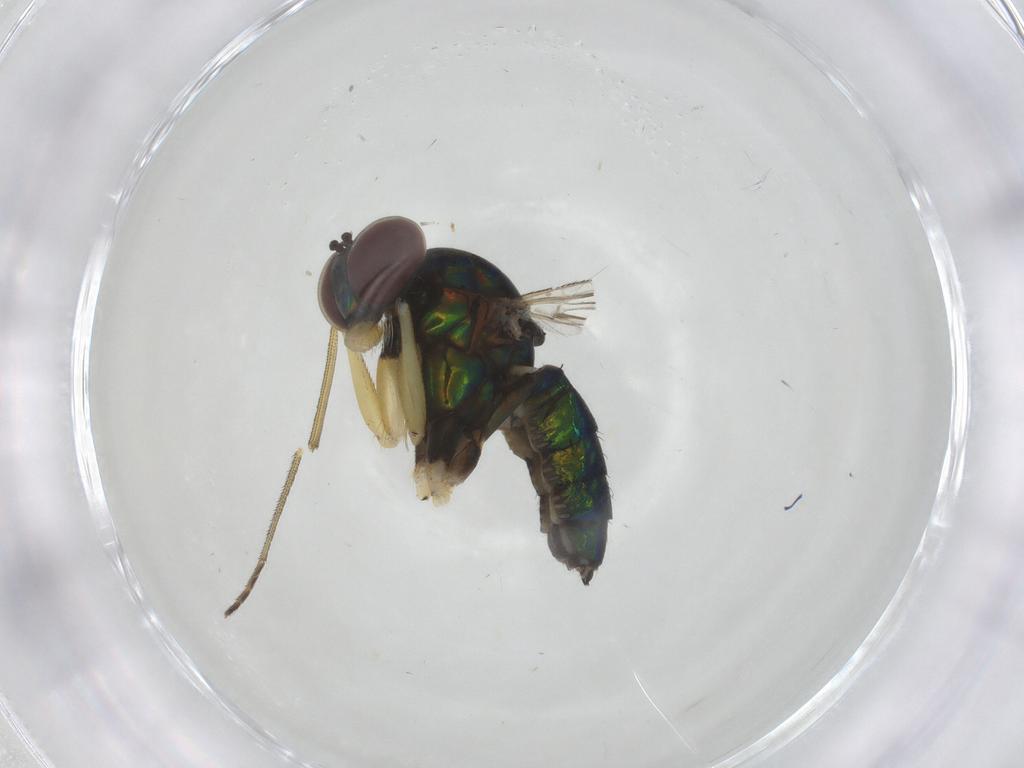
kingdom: Animalia
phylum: Arthropoda
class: Insecta
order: Diptera
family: Dolichopodidae
